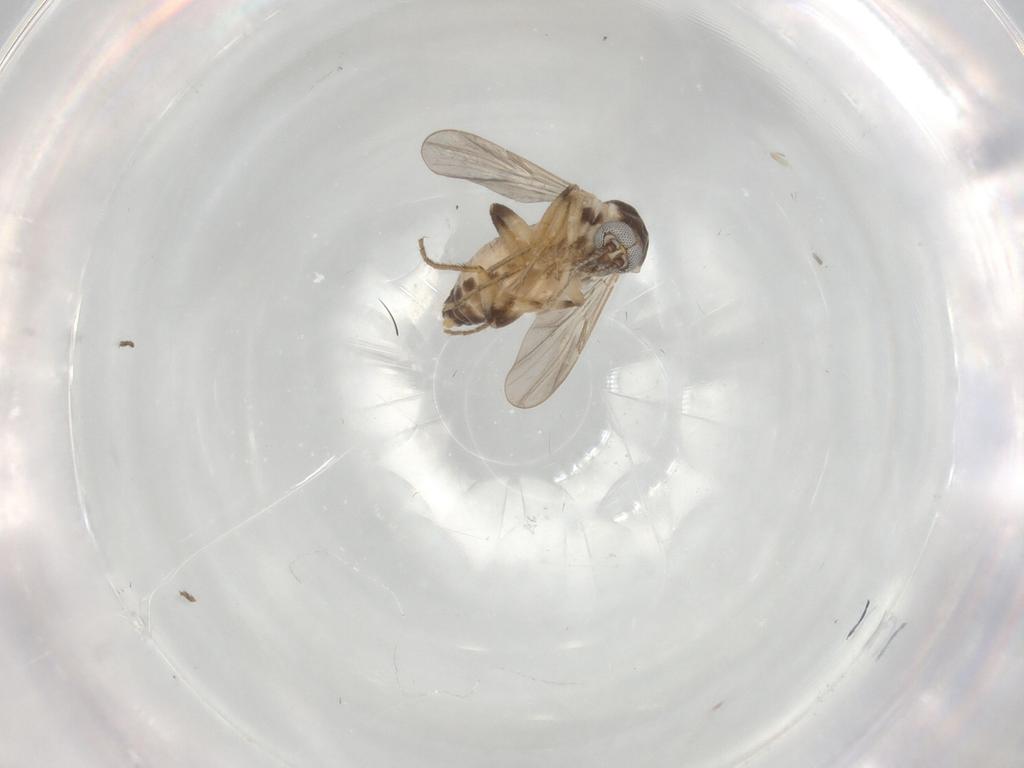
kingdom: Animalia
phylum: Arthropoda
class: Insecta
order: Diptera
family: Ceratopogonidae
